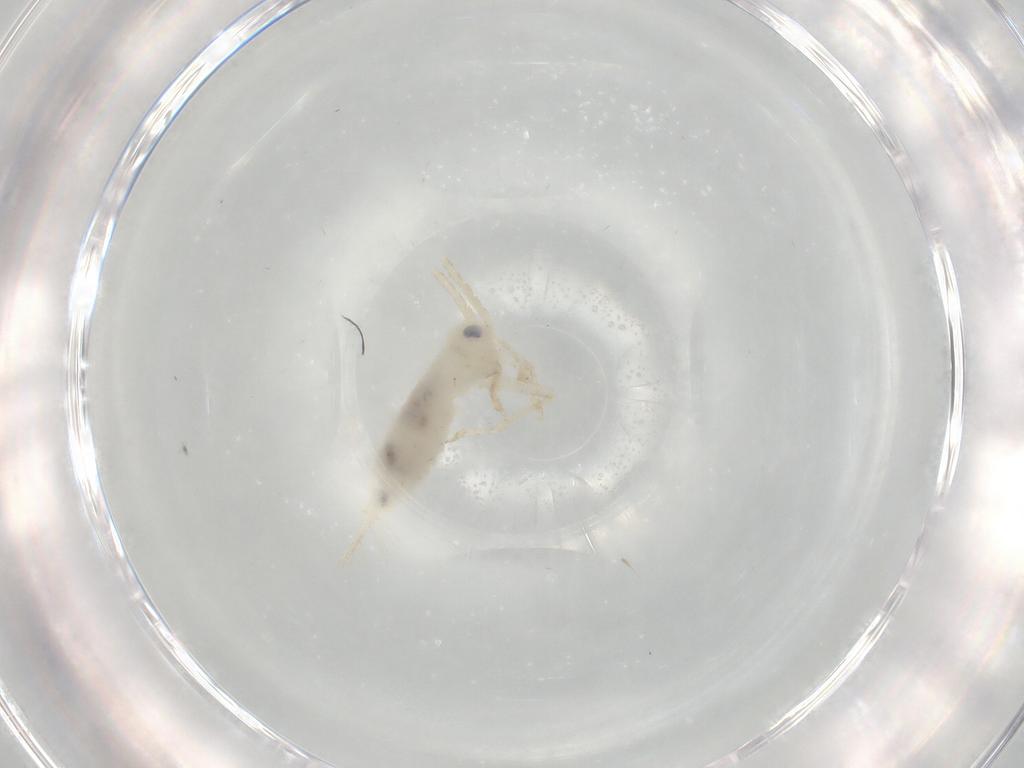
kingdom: Animalia
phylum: Arthropoda
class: Insecta
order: Orthoptera
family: Trigonidiidae
